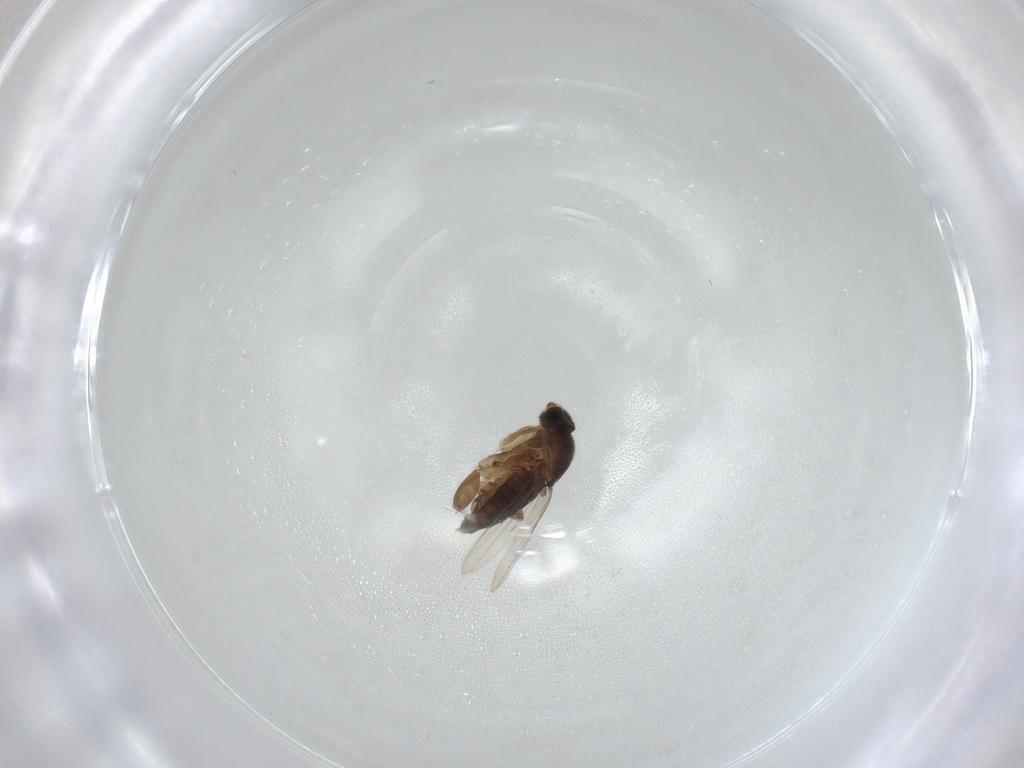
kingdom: Animalia
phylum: Arthropoda
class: Insecta
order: Diptera
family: Phoridae
